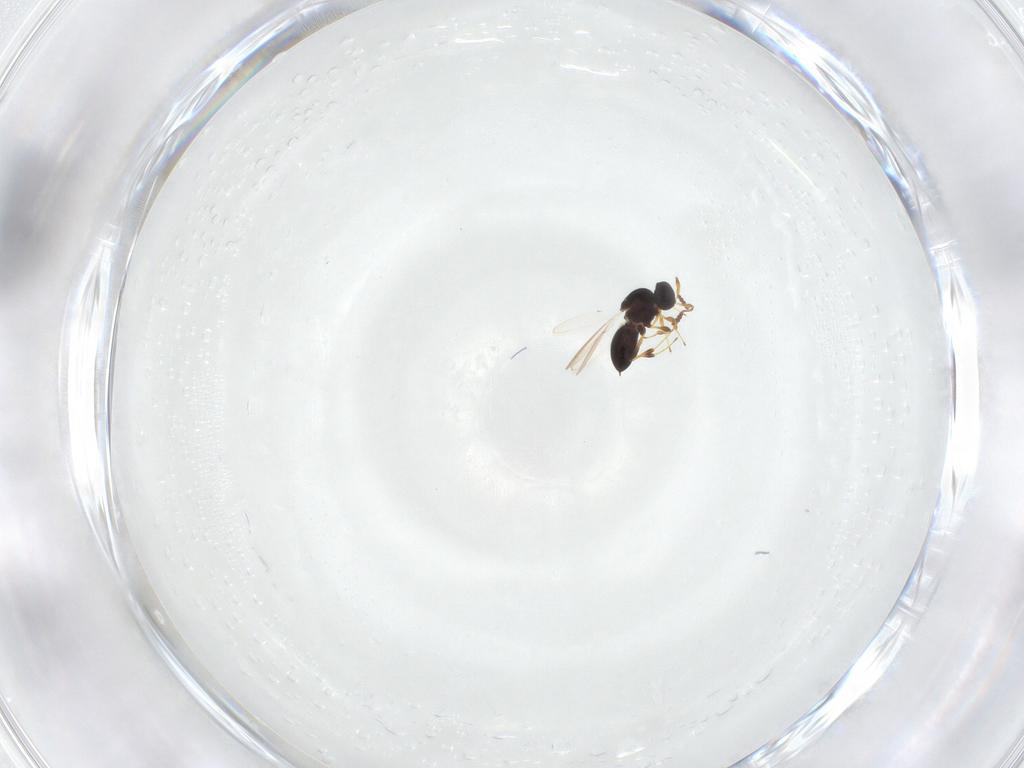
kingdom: Animalia
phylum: Arthropoda
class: Insecta
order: Hymenoptera
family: Platygastridae
